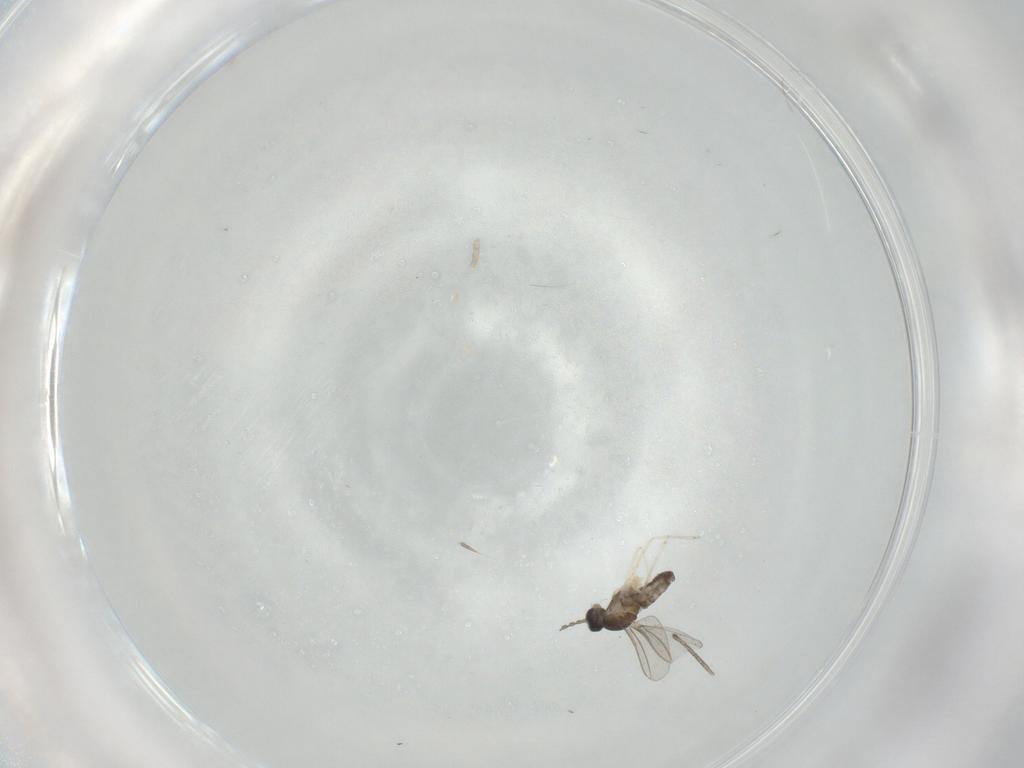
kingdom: Animalia
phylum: Arthropoda
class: Insecta
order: Diptera
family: Cecidomyiidae
